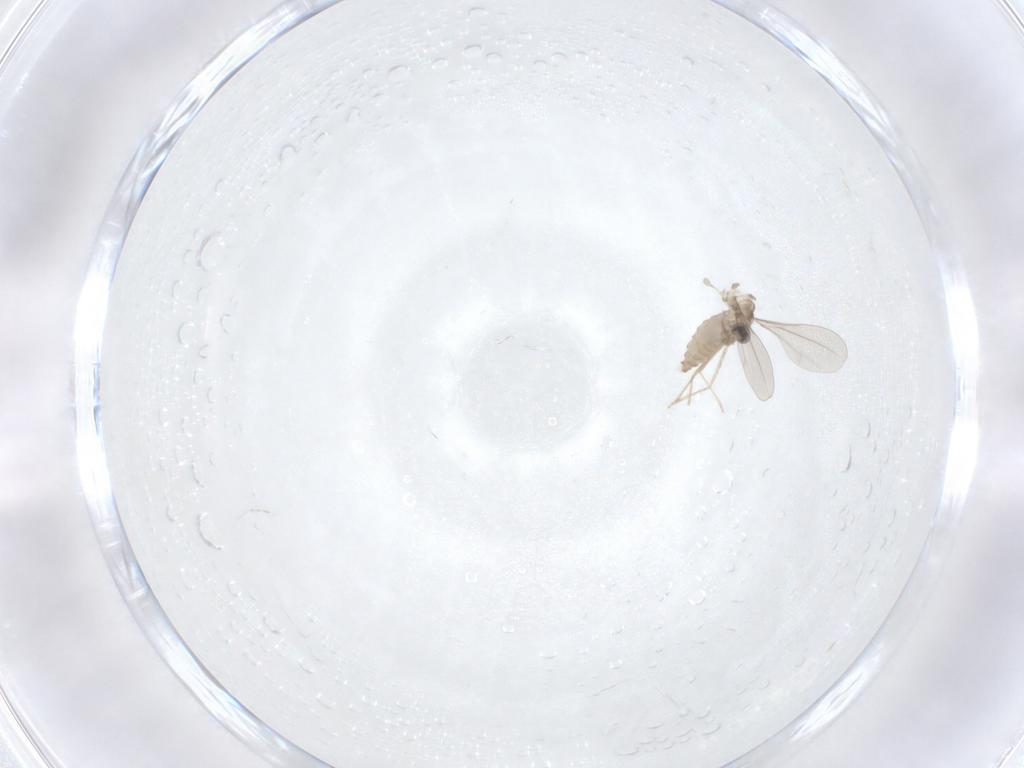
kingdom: Animalia
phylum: Arthropoda
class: Insecta
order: Diptera
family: Cecidomyiidae
